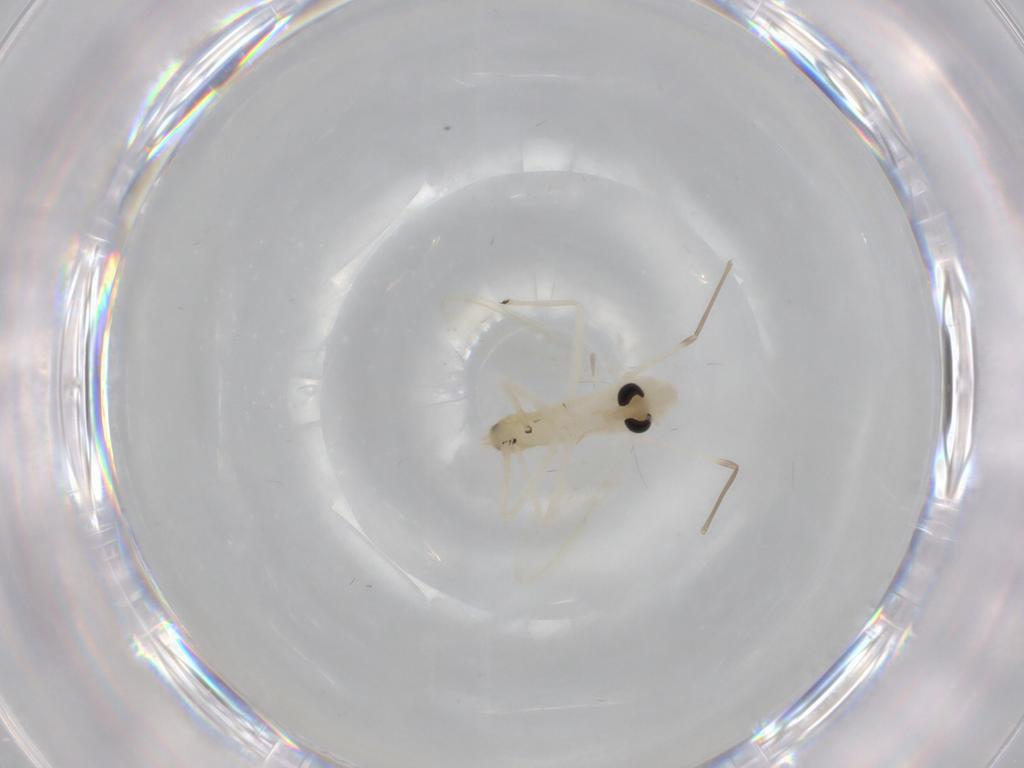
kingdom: Animalia
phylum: Arthropoda
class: Insecta
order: Diptera
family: Chironomidae
